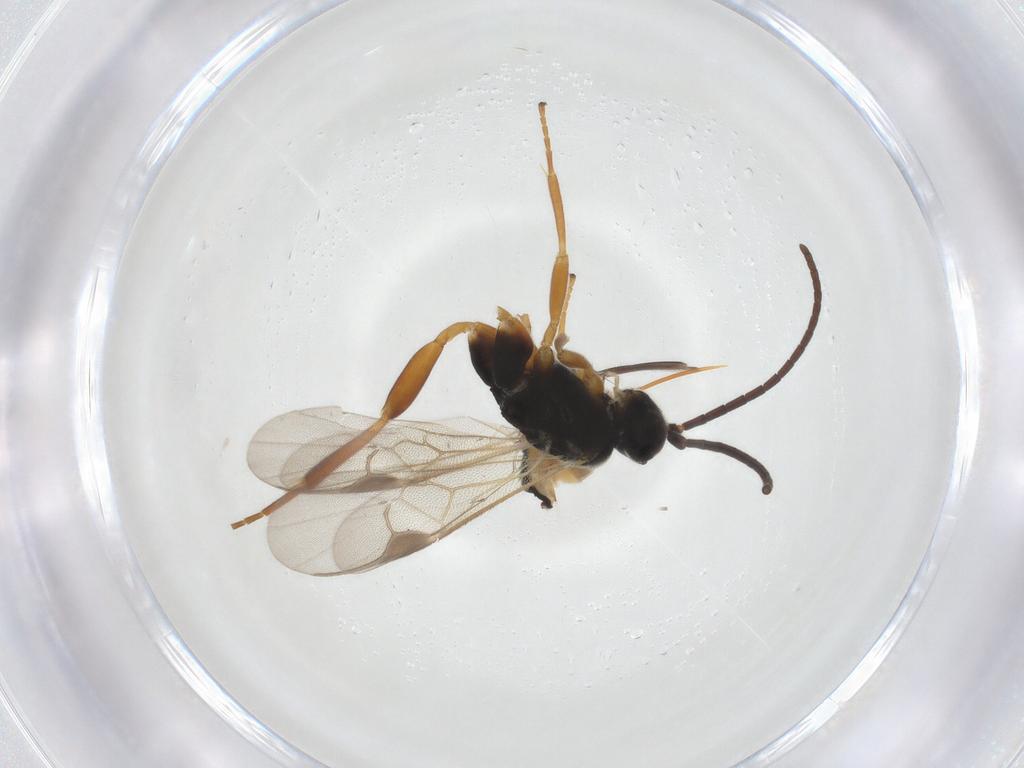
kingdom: Animalia
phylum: Arthropoda
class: Insecta
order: Hymenoptera
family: Braconidae
